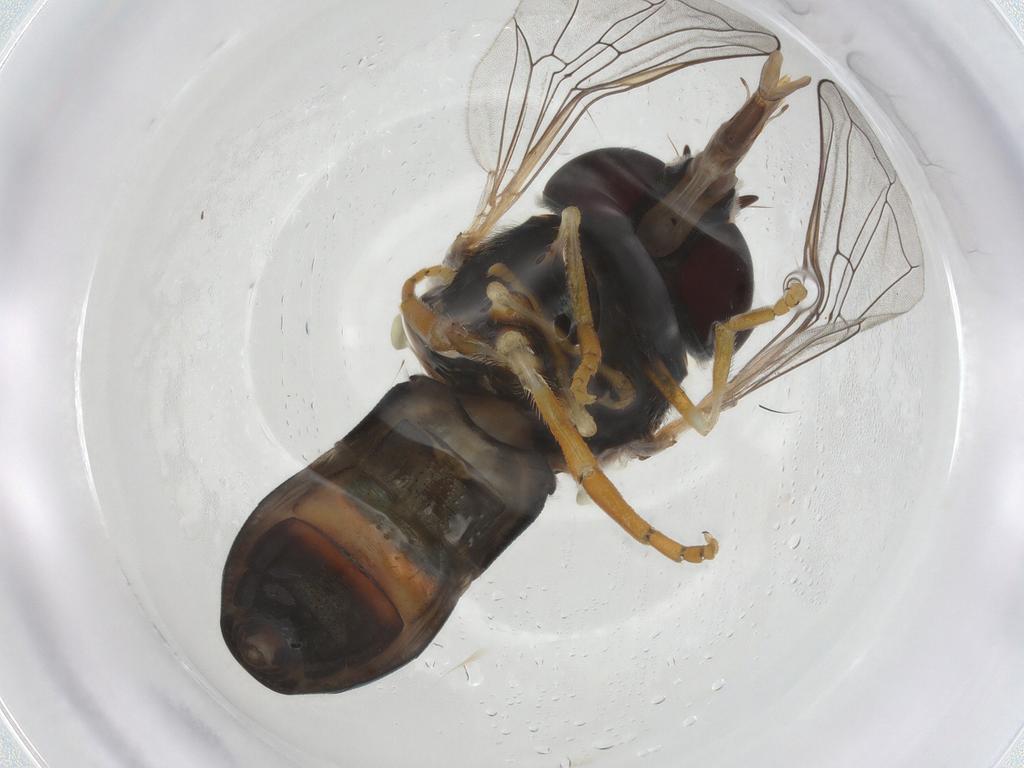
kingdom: Animalia
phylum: Arthropoda
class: Insecta
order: Diptera
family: Syrphidae
